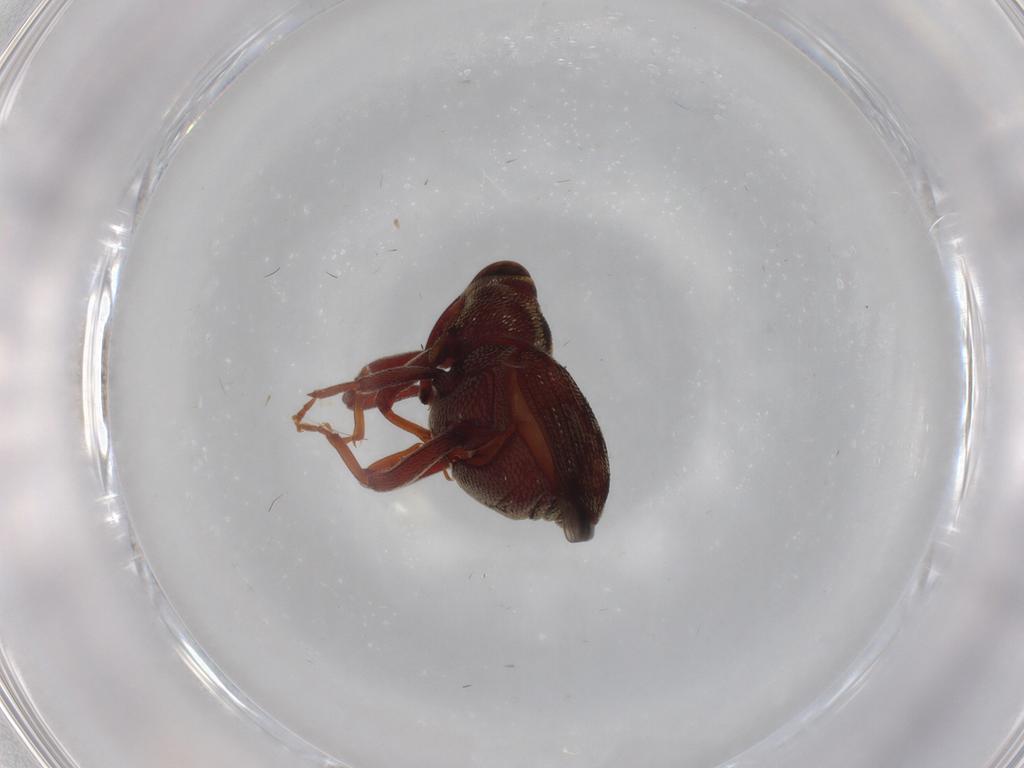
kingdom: Animalia
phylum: Arthropoda
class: Insecta
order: Coleoptera
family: Curculionidae
